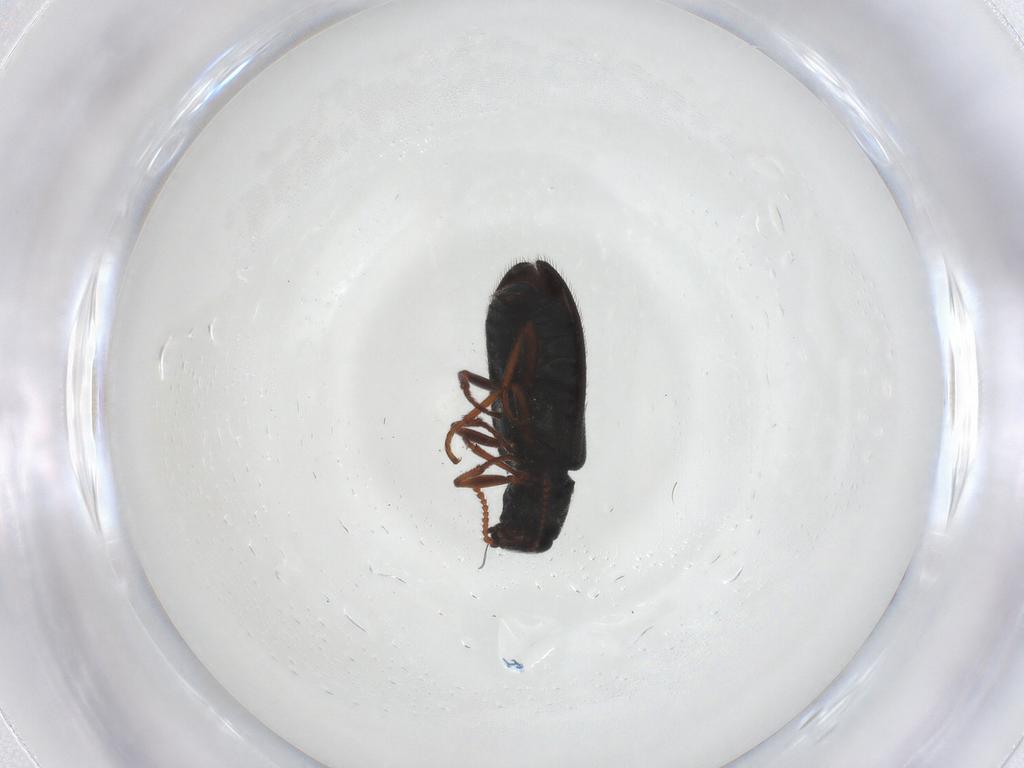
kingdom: Animalia
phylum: Arthropoda
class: Insecta
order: Coleoptera
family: Melyridae
